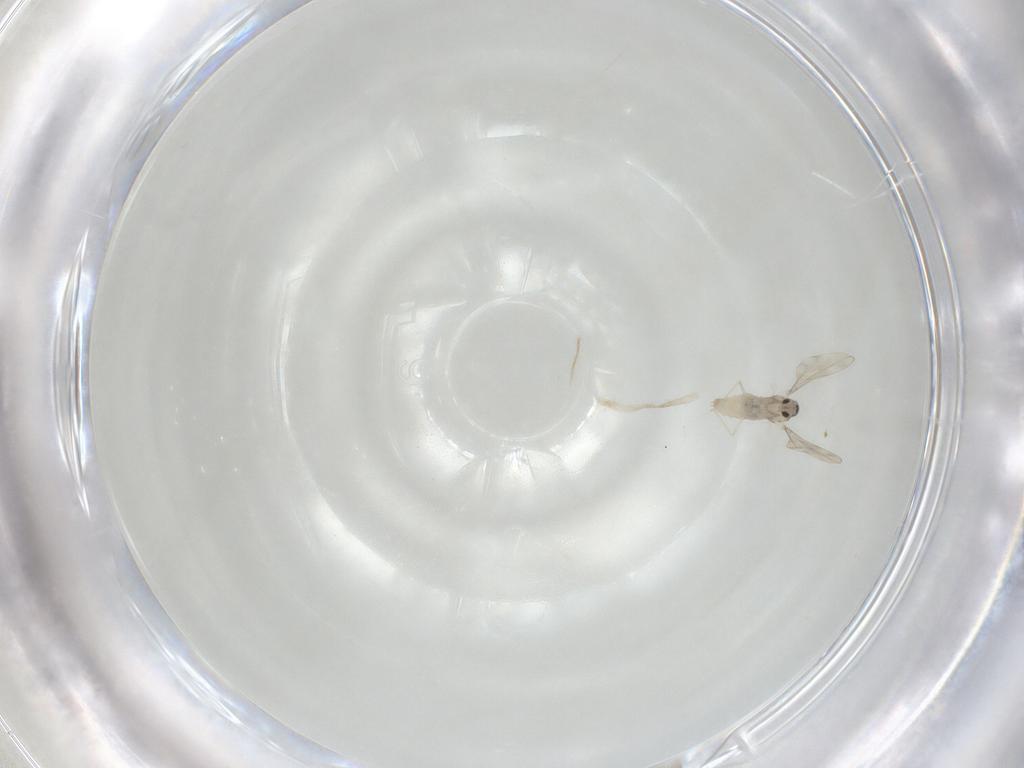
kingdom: Animalia
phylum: Arthropoda
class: Insecta
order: Diptera
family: Cecidomyiidae
